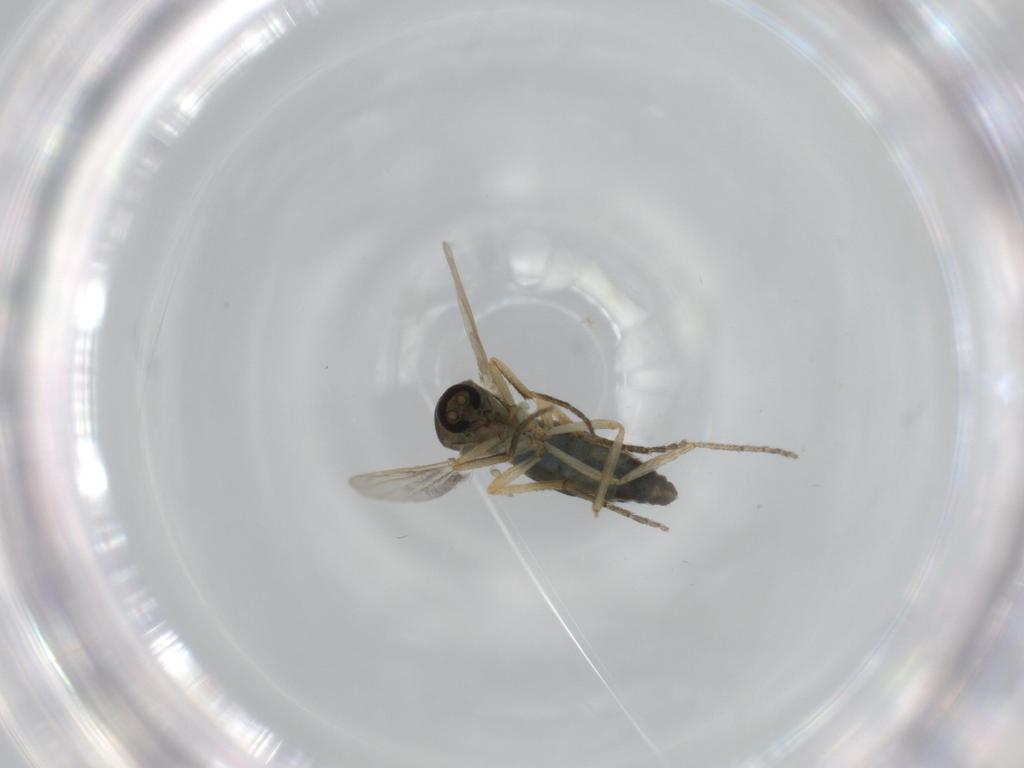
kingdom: Animalia
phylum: Arthropoda
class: Insecta
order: Diptera
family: Ceratopogonidae
